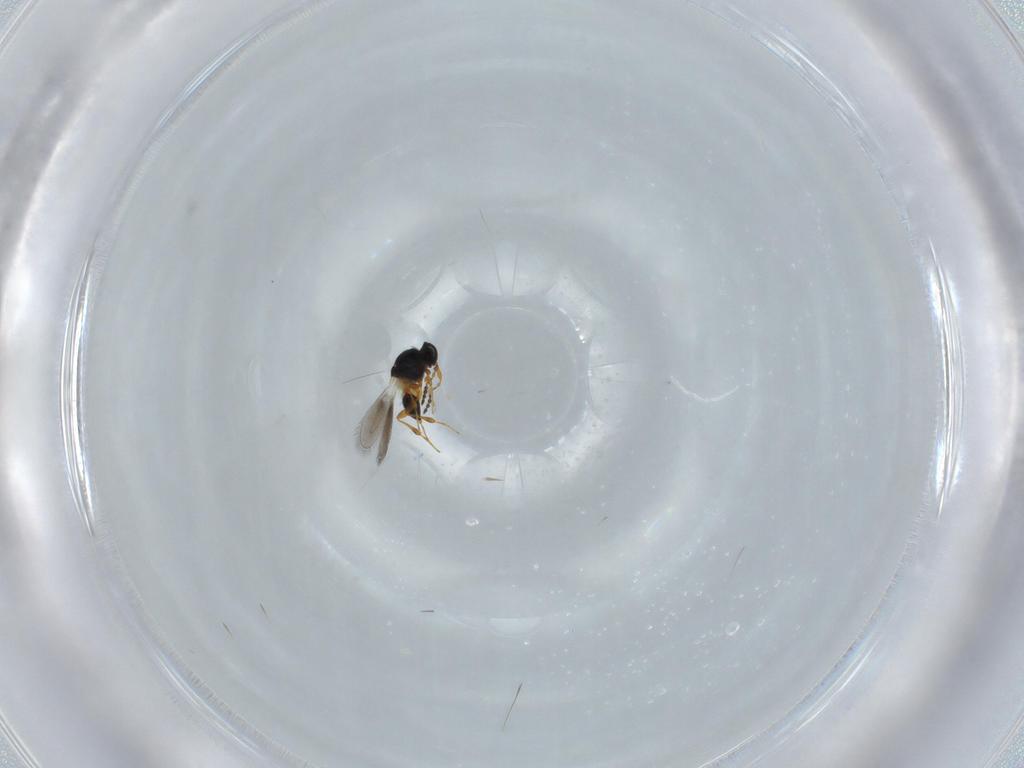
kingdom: Animalia
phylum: Arthropoda
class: Insecta
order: Hymenoptera
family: Platygastridae
